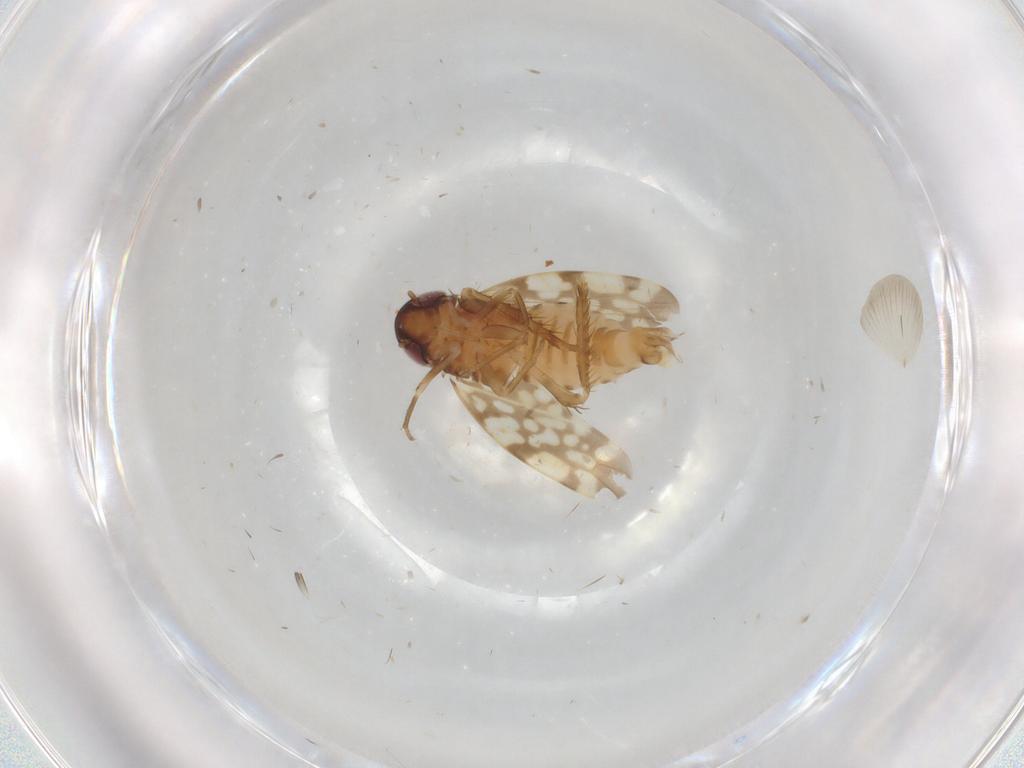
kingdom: Animalia
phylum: Arthropoda
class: Insecta
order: Hemiptera
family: Cicadellidae
